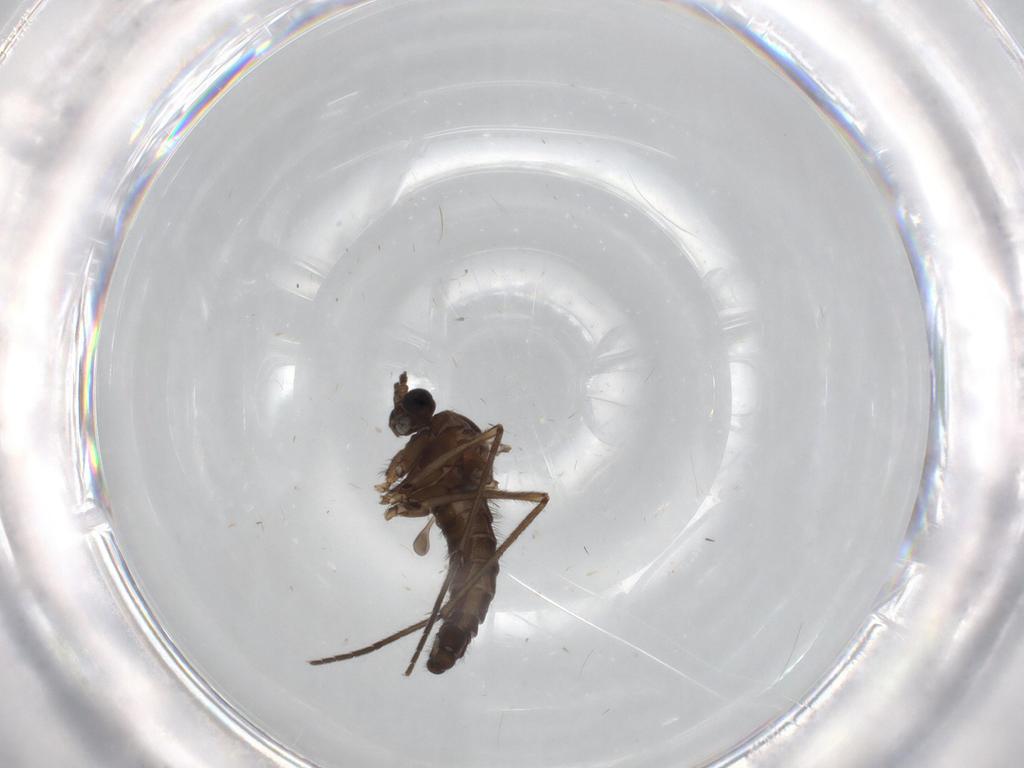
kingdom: Animalia
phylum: Arthropoda
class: Insecta
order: Diptera
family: Sciaridae
